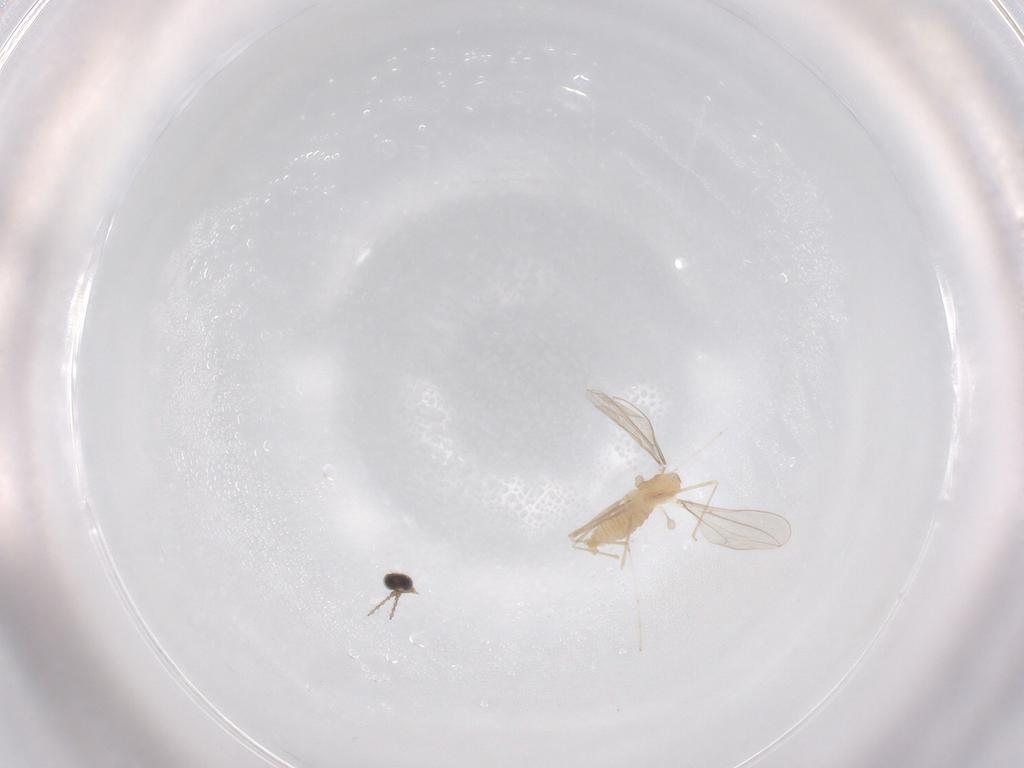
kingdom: Animalia
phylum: Arthropoda
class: Insecta
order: Diptera
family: Cecidomyiidae
